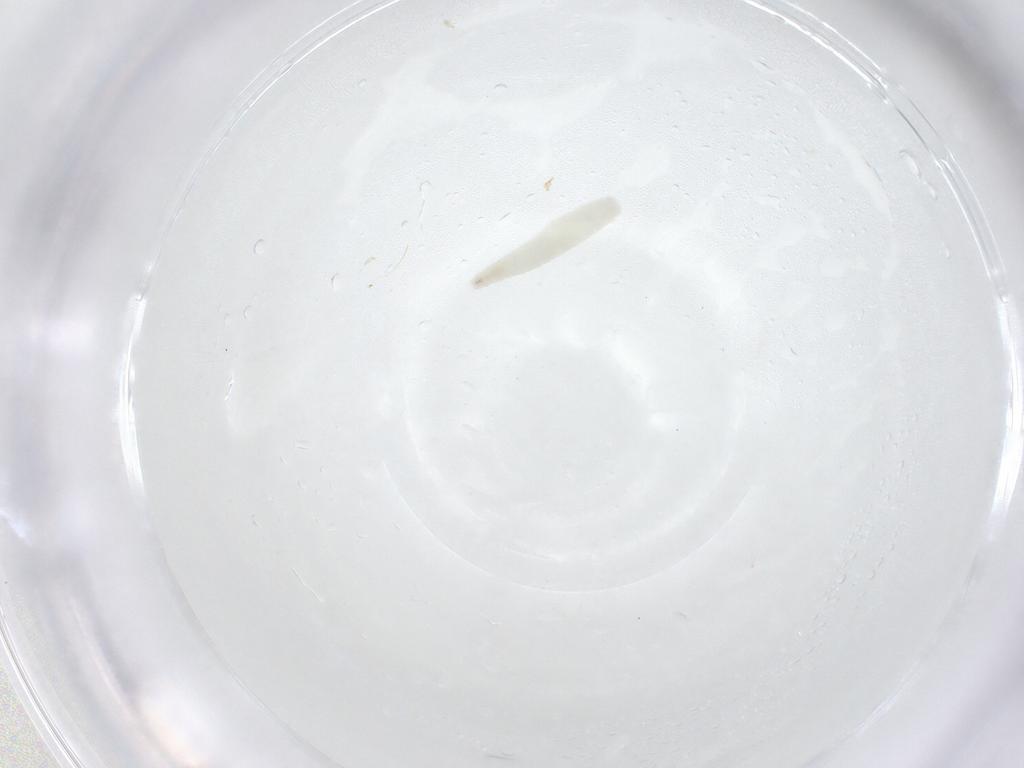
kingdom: Animalia
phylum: Arthropoda
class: Insecta
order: Diptera
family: Sarcophagidae
